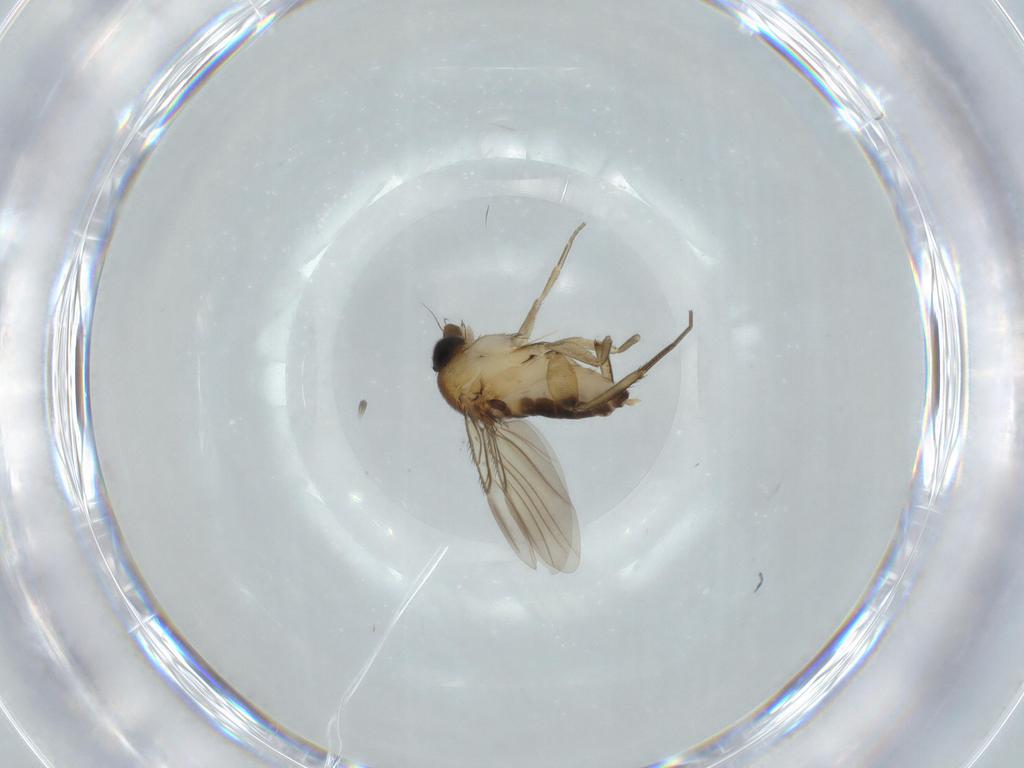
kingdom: Animalia
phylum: Arthropoda
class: Insecta
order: Diptera
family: Phoridae
